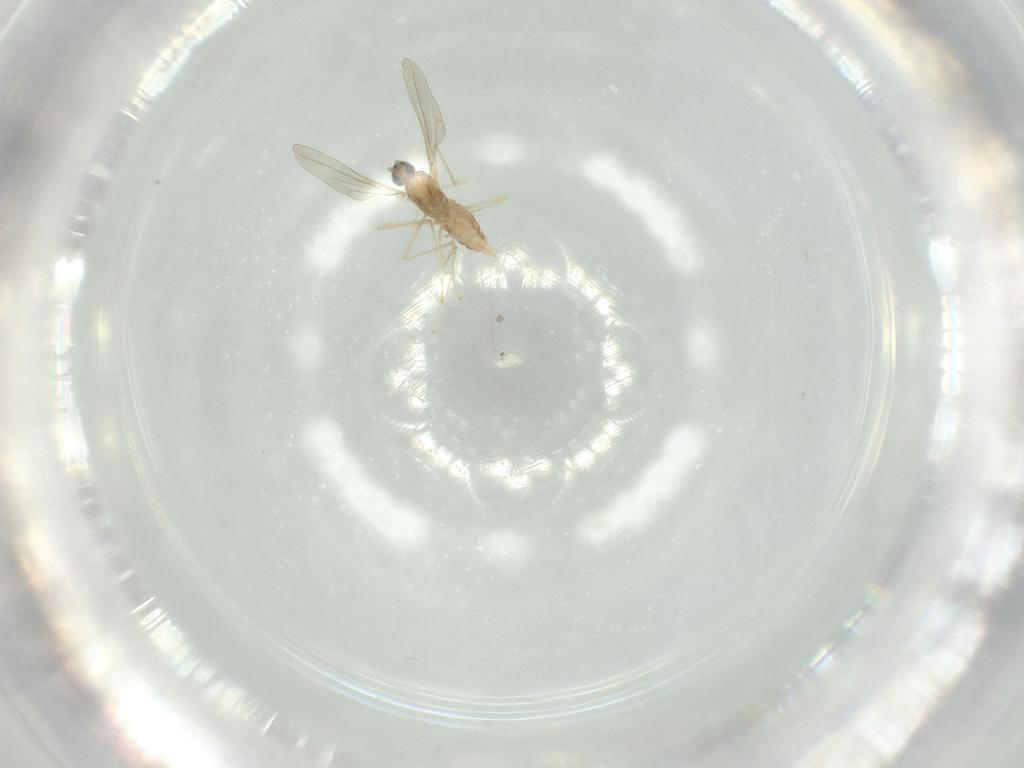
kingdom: Animalia
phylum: Arthropoda
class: Insecta
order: Diptera
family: Cecidomyiidae
